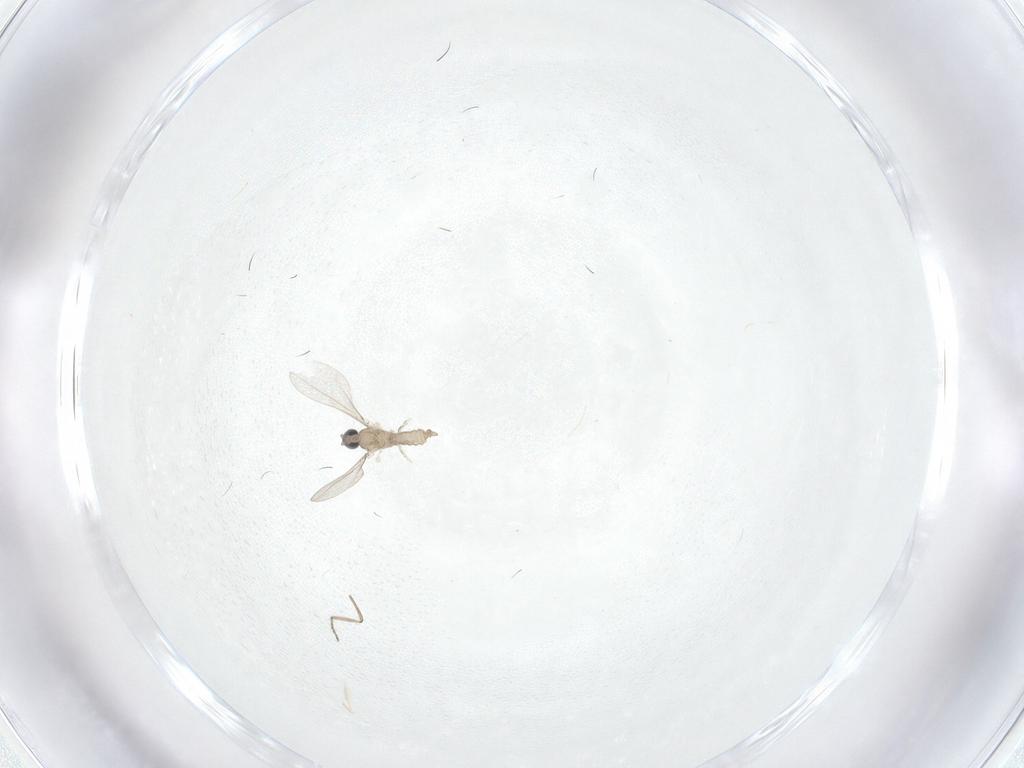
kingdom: Animalia
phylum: Arthropoda
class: Insecta
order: Diptera
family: Cecidomyiidae
